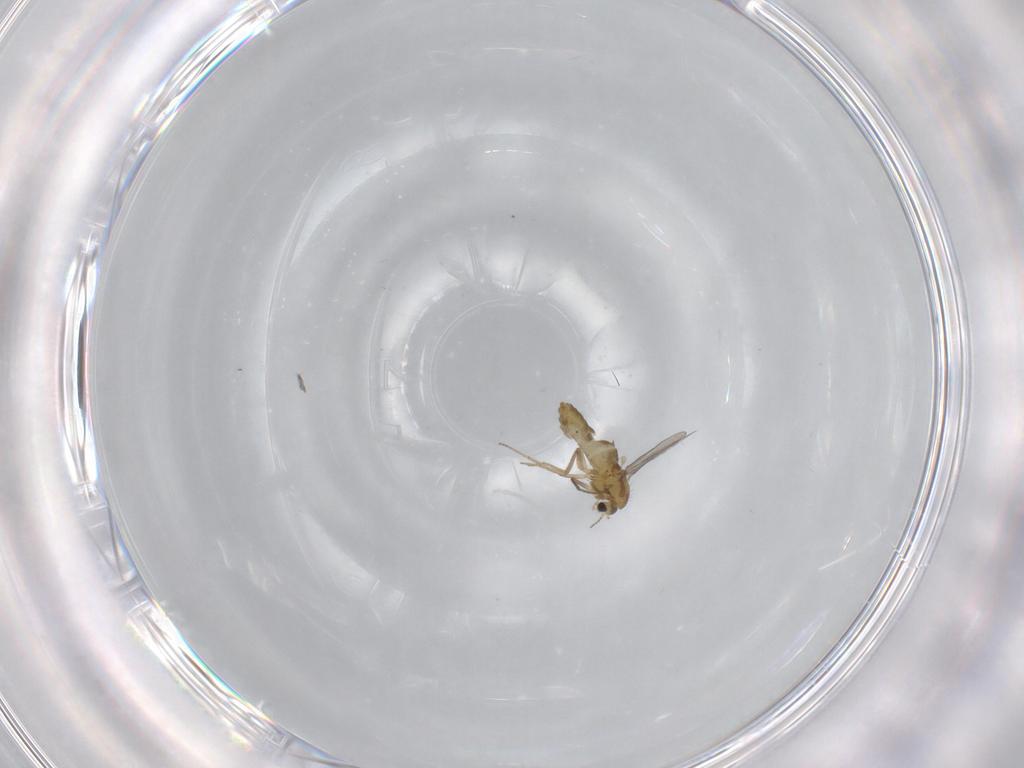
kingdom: Animalia
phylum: Arthropoda
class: Insecta
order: Diptera
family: Chironomidae
